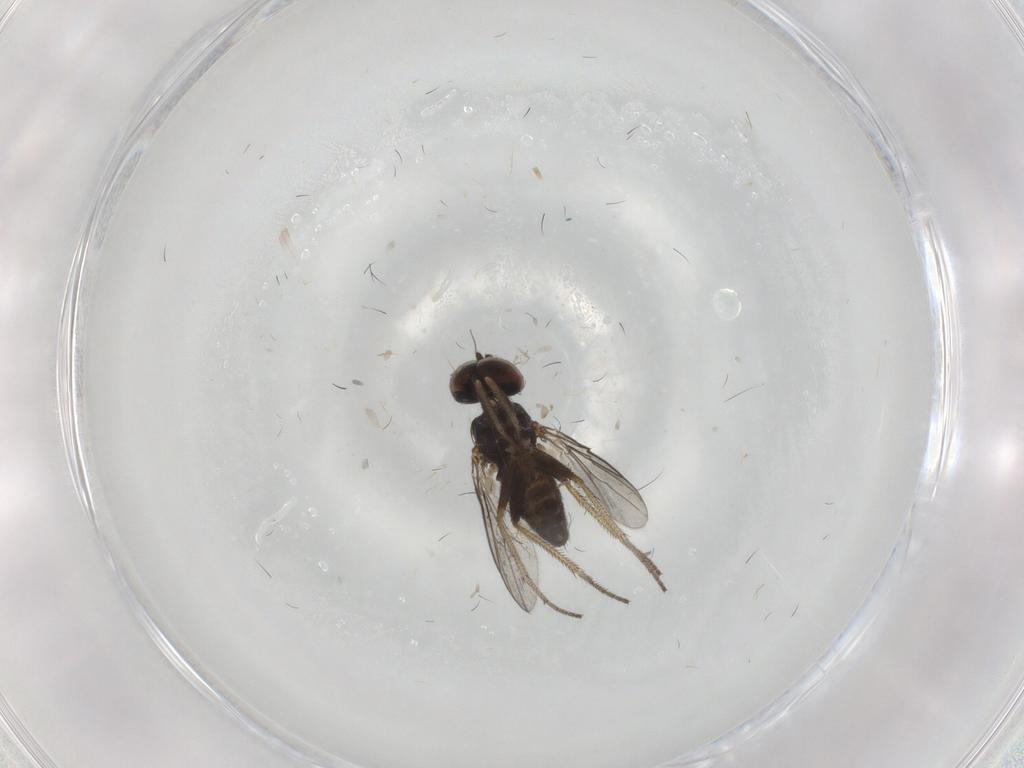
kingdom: Animalia
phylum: Arthropoda
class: Insecta
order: Diptera
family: Dolichopodidae
